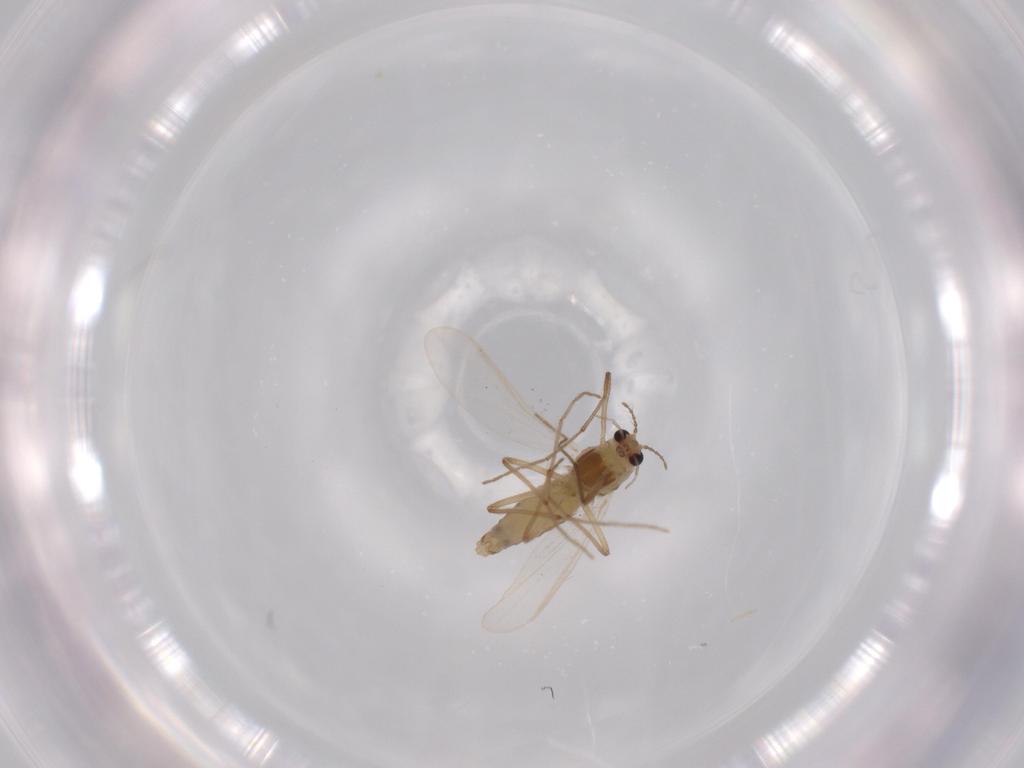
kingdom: Animalia
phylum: Arthropoda
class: Insecta
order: Diptera
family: Chironomidae
